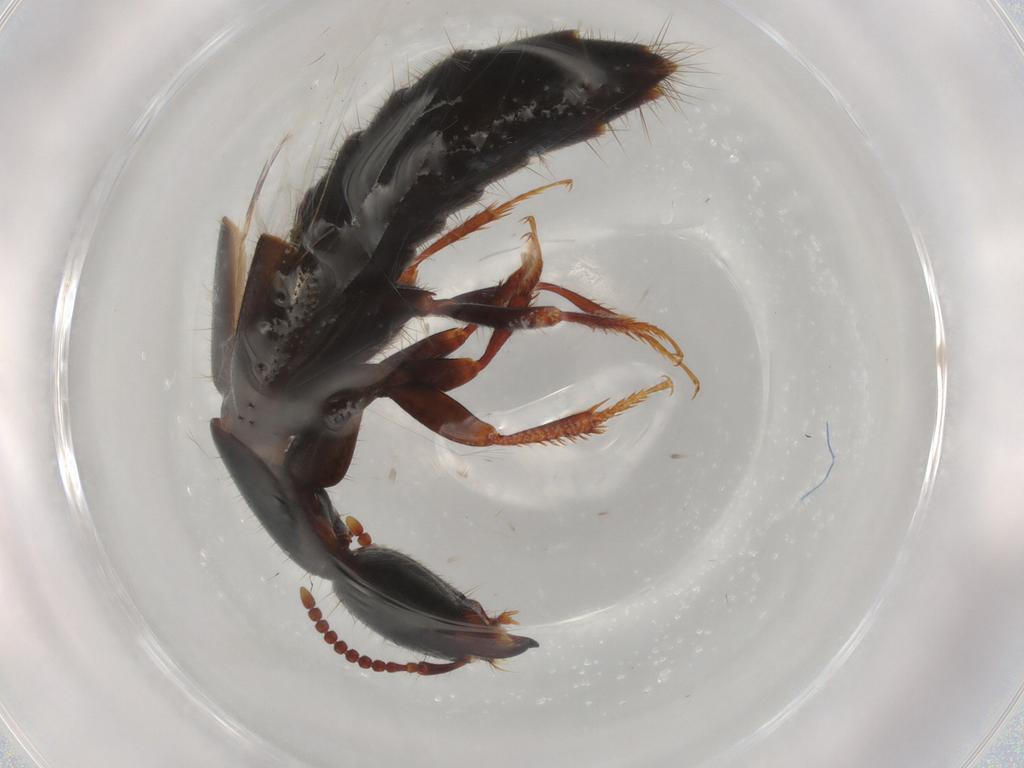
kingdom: Animalia
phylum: Arthropoda
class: Insecta
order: Coleoptera
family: Staphylinidae
